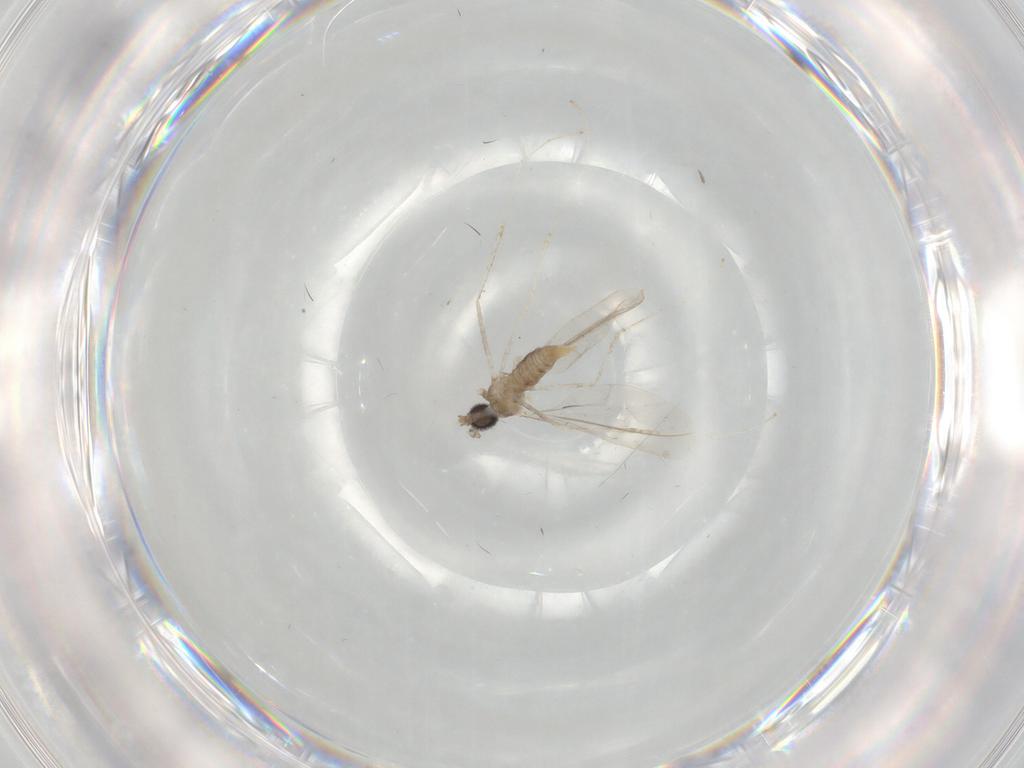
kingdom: Animalia
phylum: Arthropoda
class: Insecta
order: Diptera
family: Cecidomyiidae
